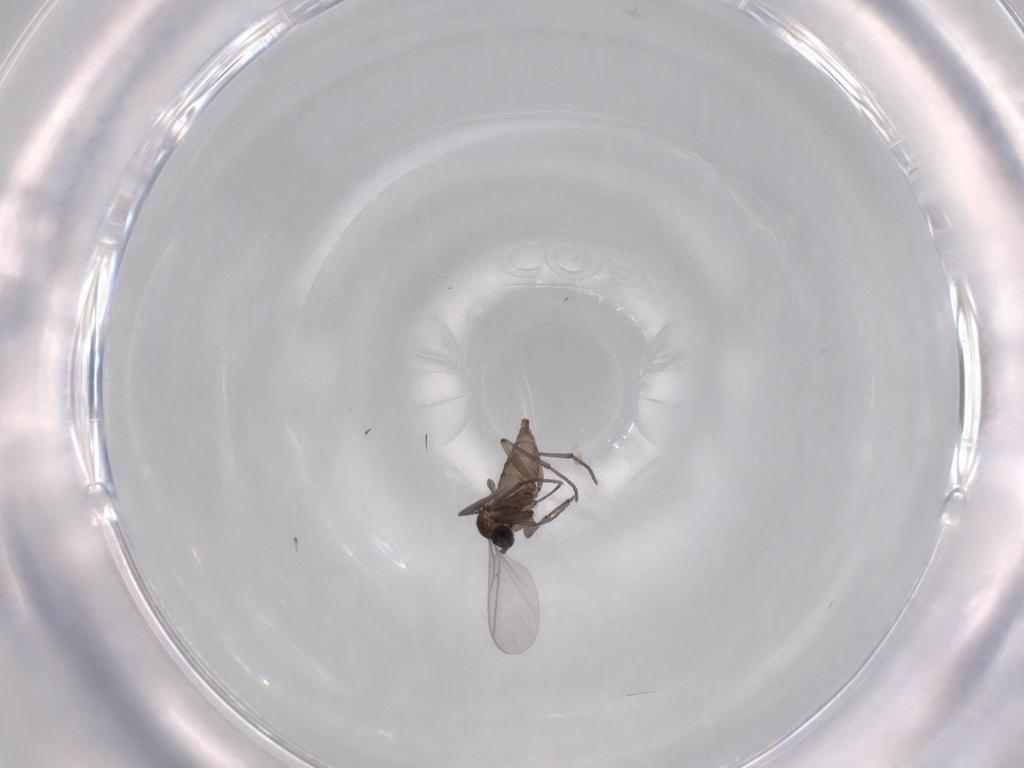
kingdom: Animalia
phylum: Arthropoda
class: Insecta
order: Diptera
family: Sciaridae
